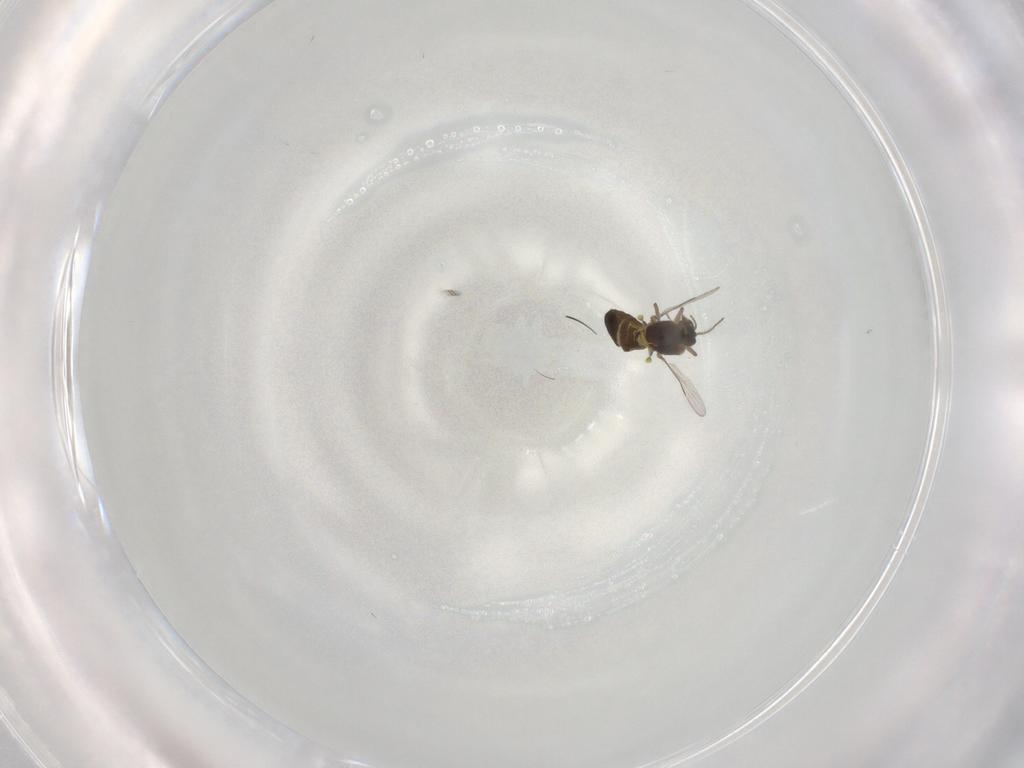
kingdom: Animalia
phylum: Arthropoda
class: Insecta
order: Diptera
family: Ceratopogonidae
